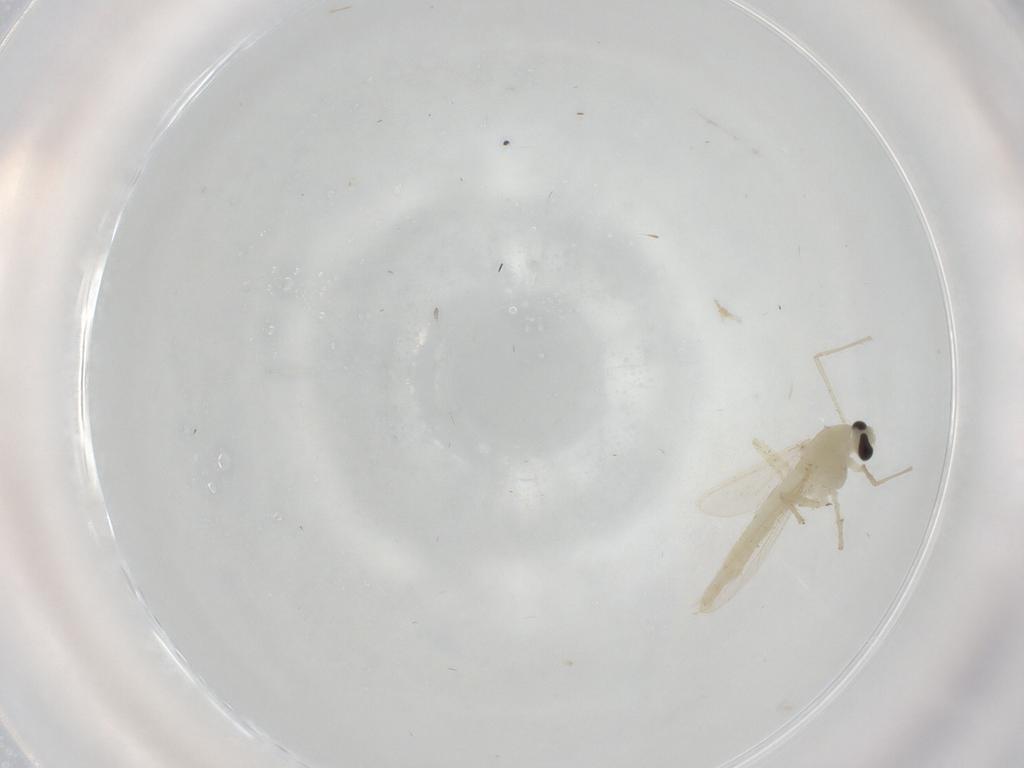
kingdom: Animalia
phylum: Arthropoda
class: Insecta
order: Diptera
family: Chironomidae
